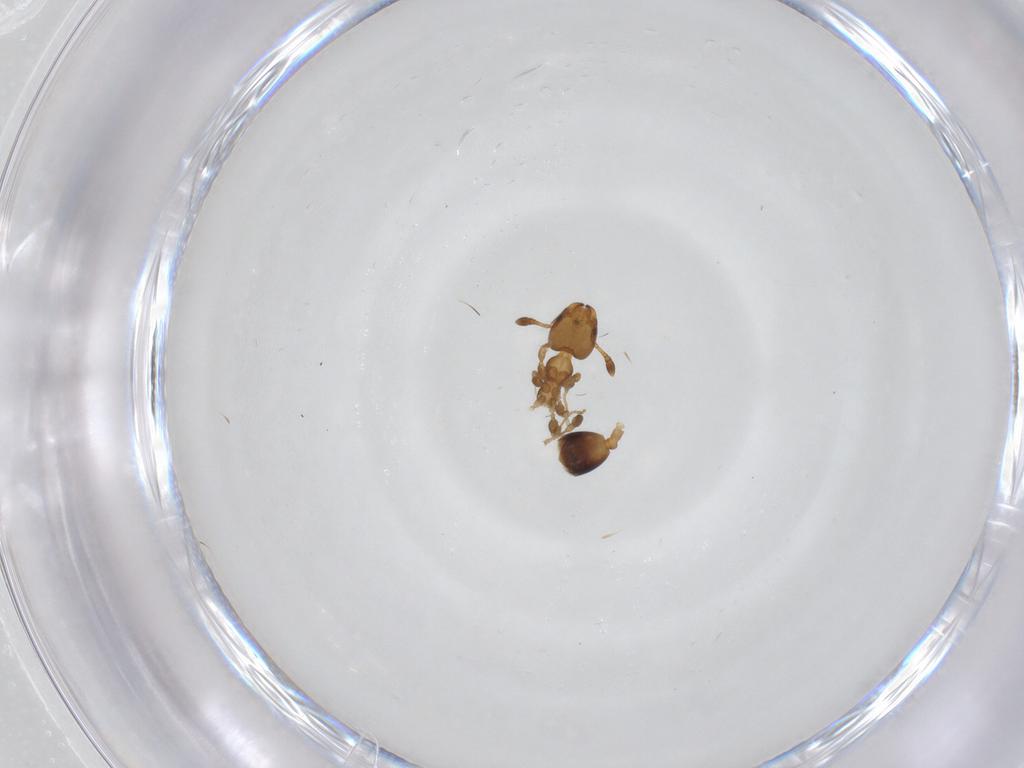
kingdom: Animalia
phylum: Arthropoda
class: Insecta
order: Hymenoptera
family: Formicidae
